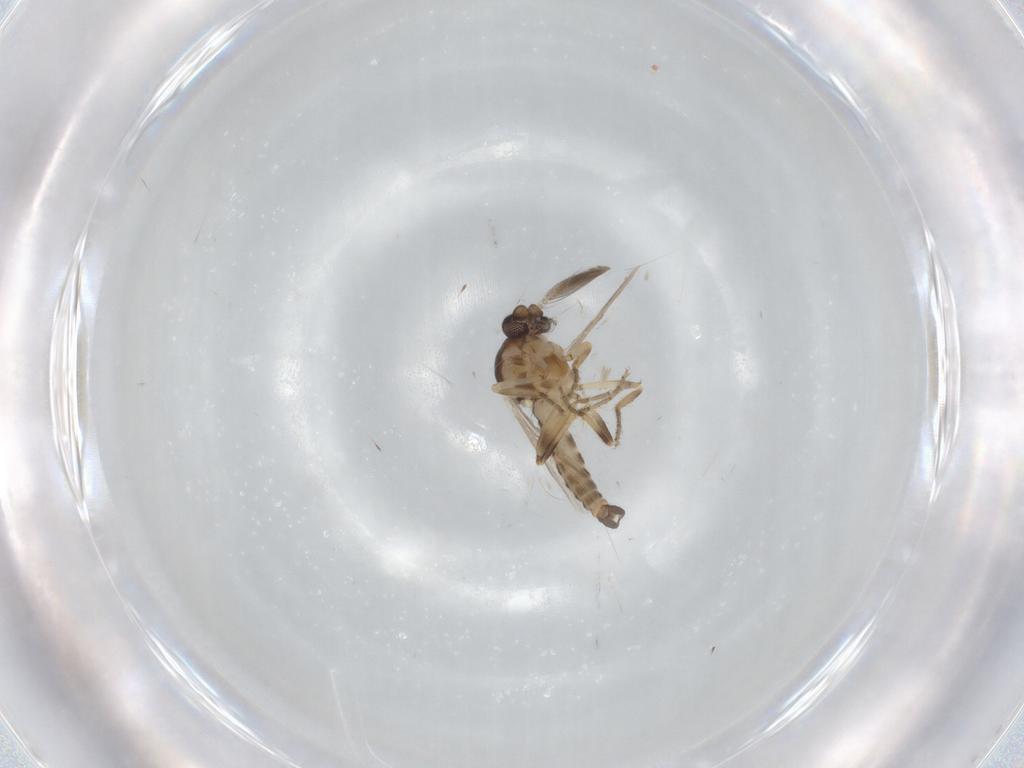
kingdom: Animalia
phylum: Arthropoda
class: Insecta
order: Diptera
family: Ceratopogonidae
